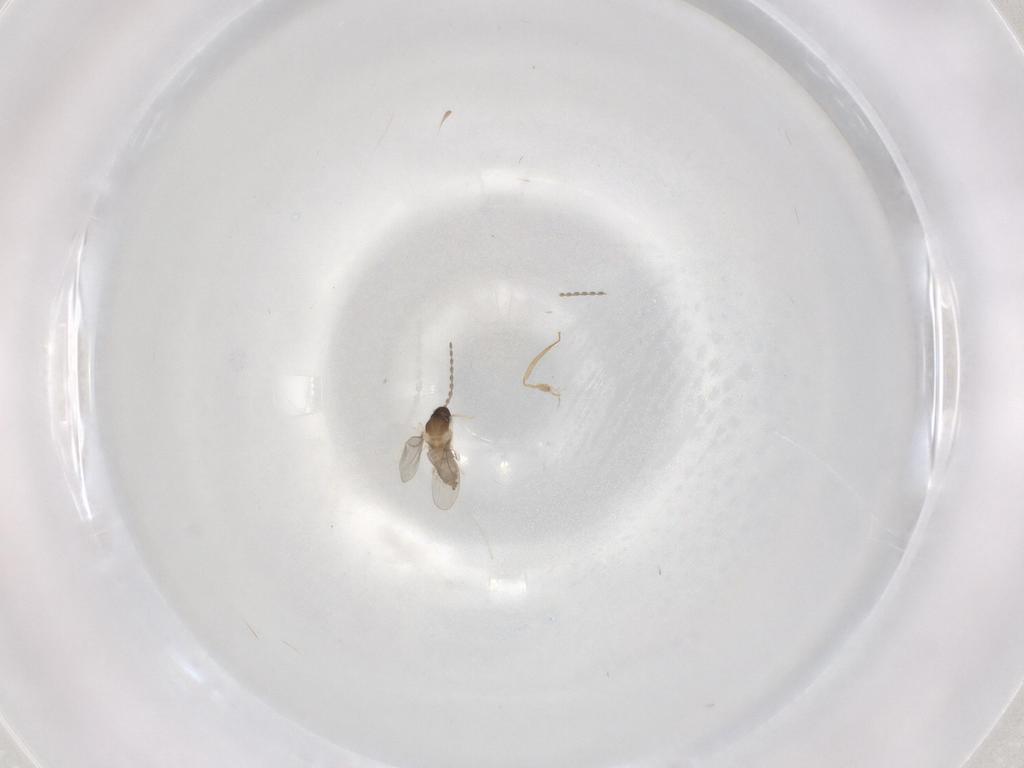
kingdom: Animalia
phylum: Arthropoda
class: Insecta
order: Diptera
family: Cecidomyiidae
